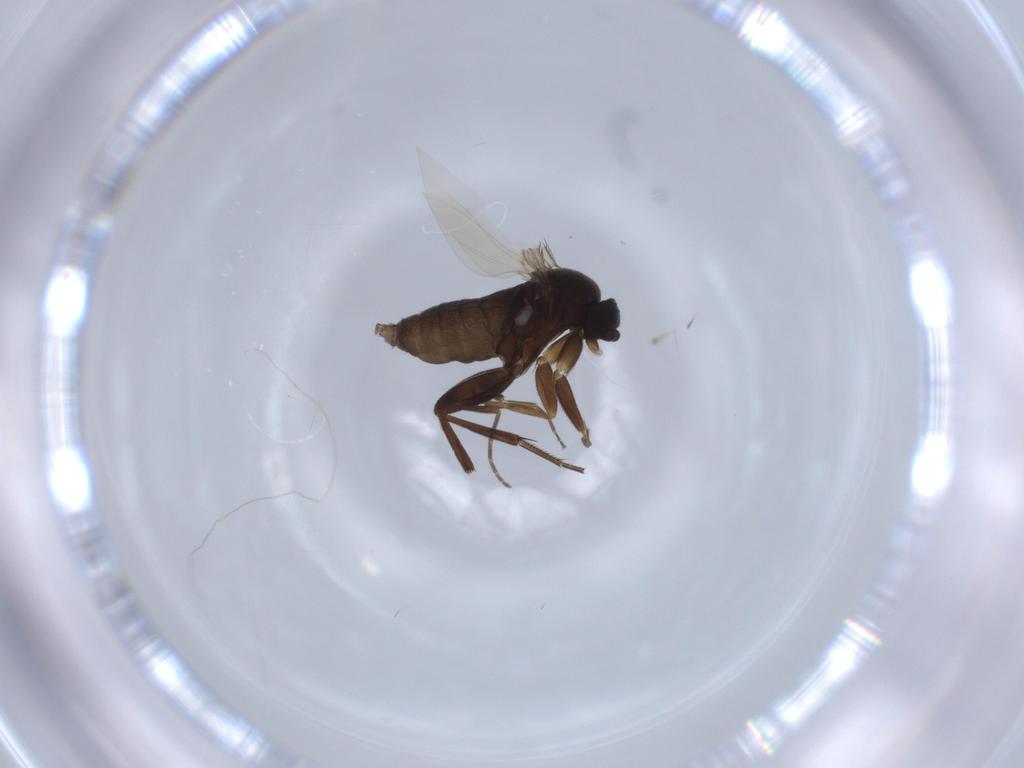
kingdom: Animalia
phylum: Arthropoda
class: Insecta
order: Diptera
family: Phoridae
